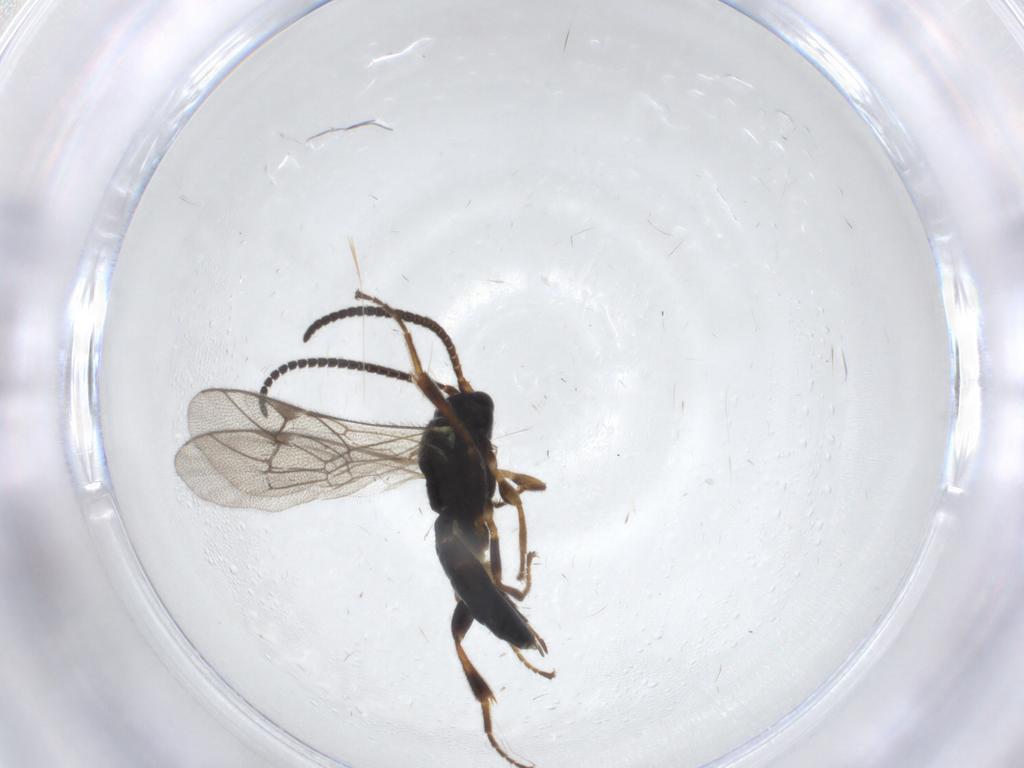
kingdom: Animalia
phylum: Arthropoda
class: Insecta
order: Hymenoptera
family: Ichneumonidae
